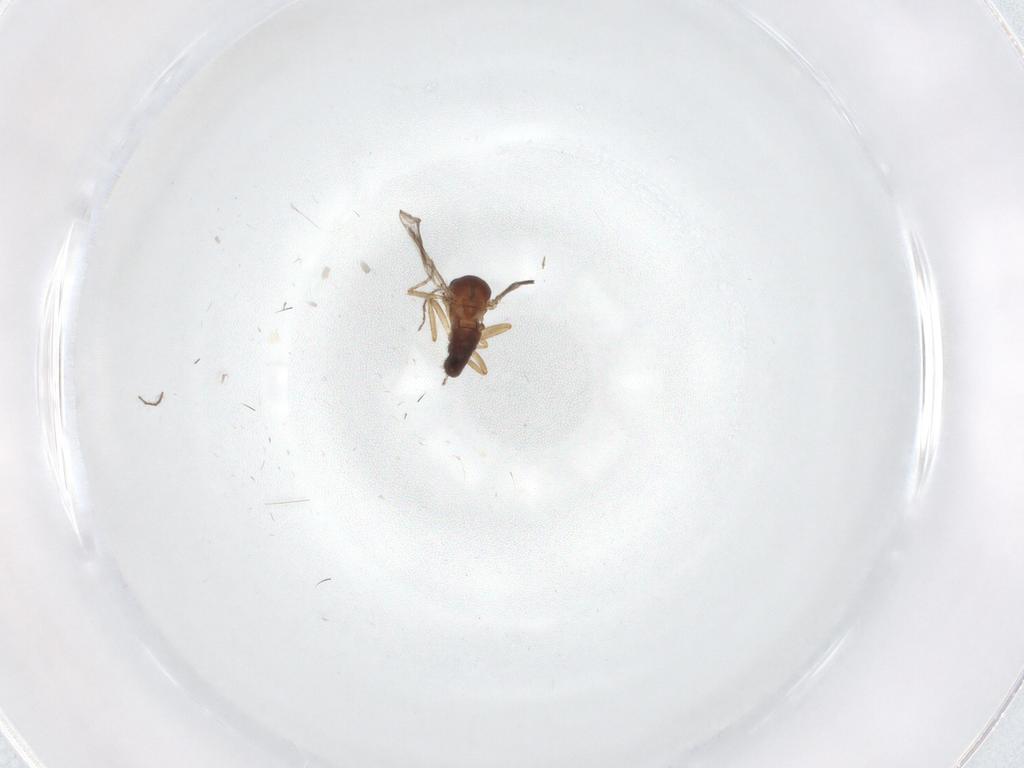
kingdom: Animalia
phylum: Arthropoda
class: Insecta
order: Diptera
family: Ceratopogonidae
